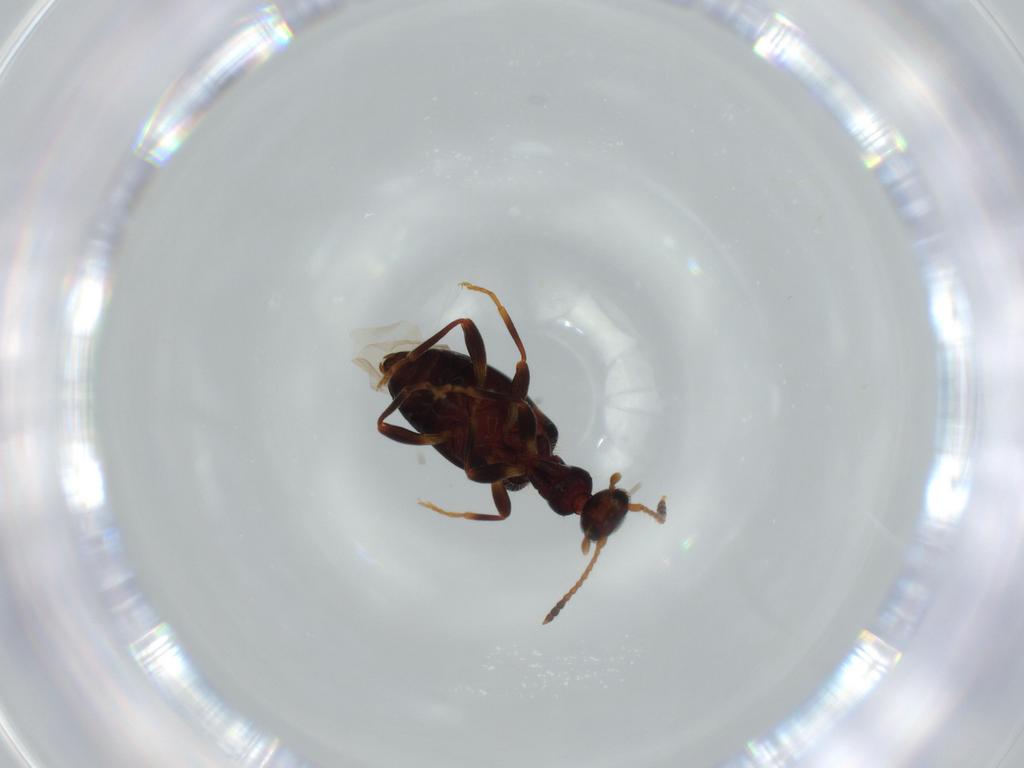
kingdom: Animalia
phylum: Arthropoda
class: Insecta
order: Coleoptera
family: Anthicidae
